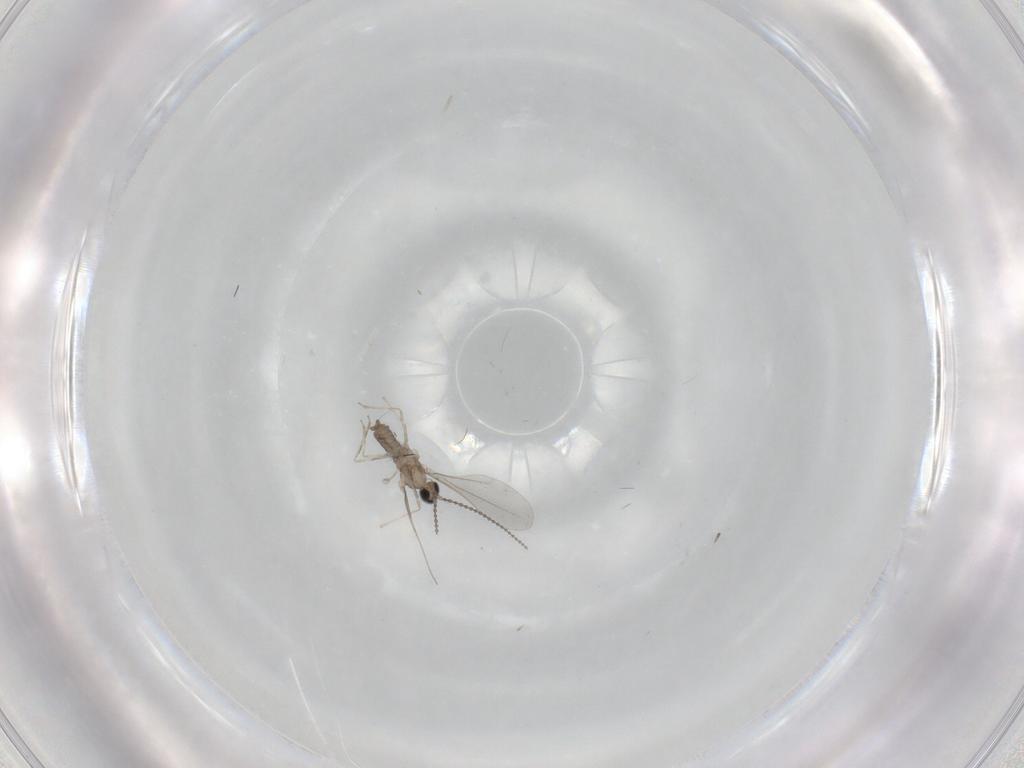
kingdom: Animalia
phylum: Arthropoda
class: Insecta
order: Diptera
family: Cecidomyiidae
